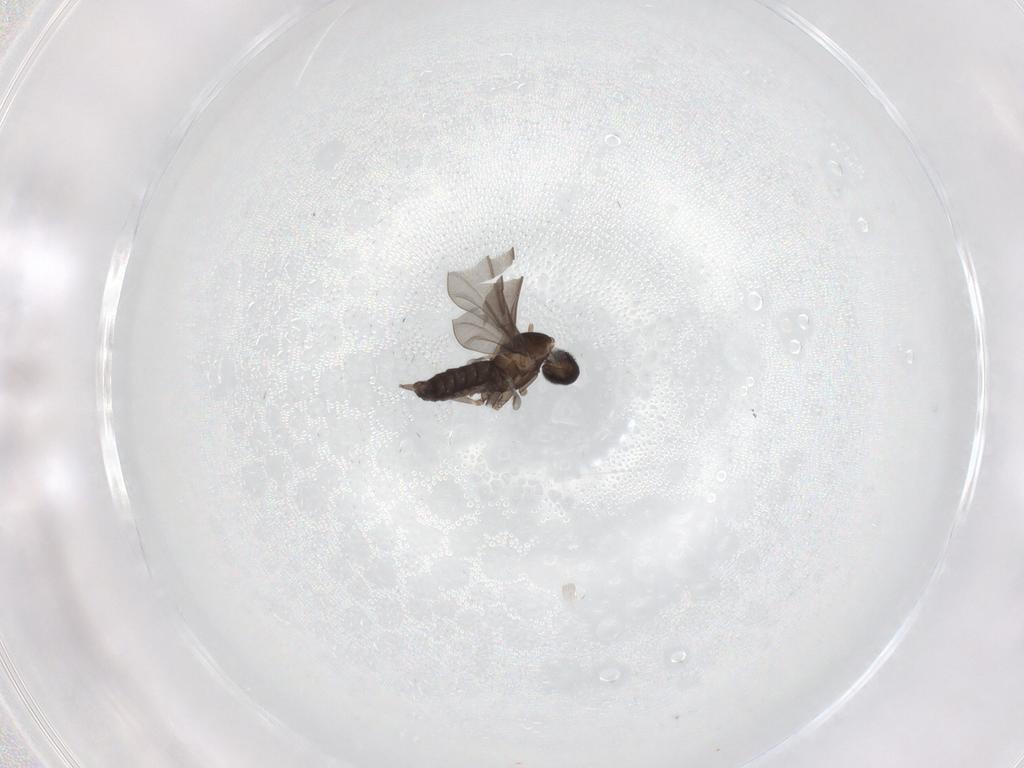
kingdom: Animalia
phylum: Arthropoda
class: Insecta
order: Diptera
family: Cecidomyiidae
